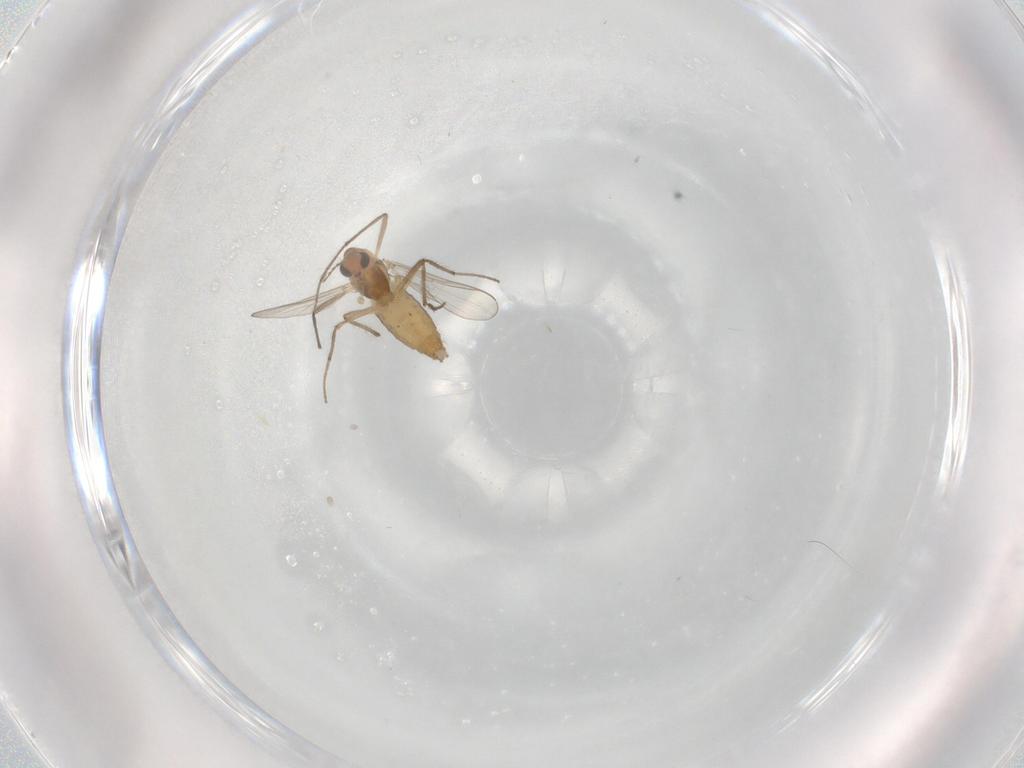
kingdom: Animalia
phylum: Arthropoda
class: Insecta
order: Diptera
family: Chironomidae
